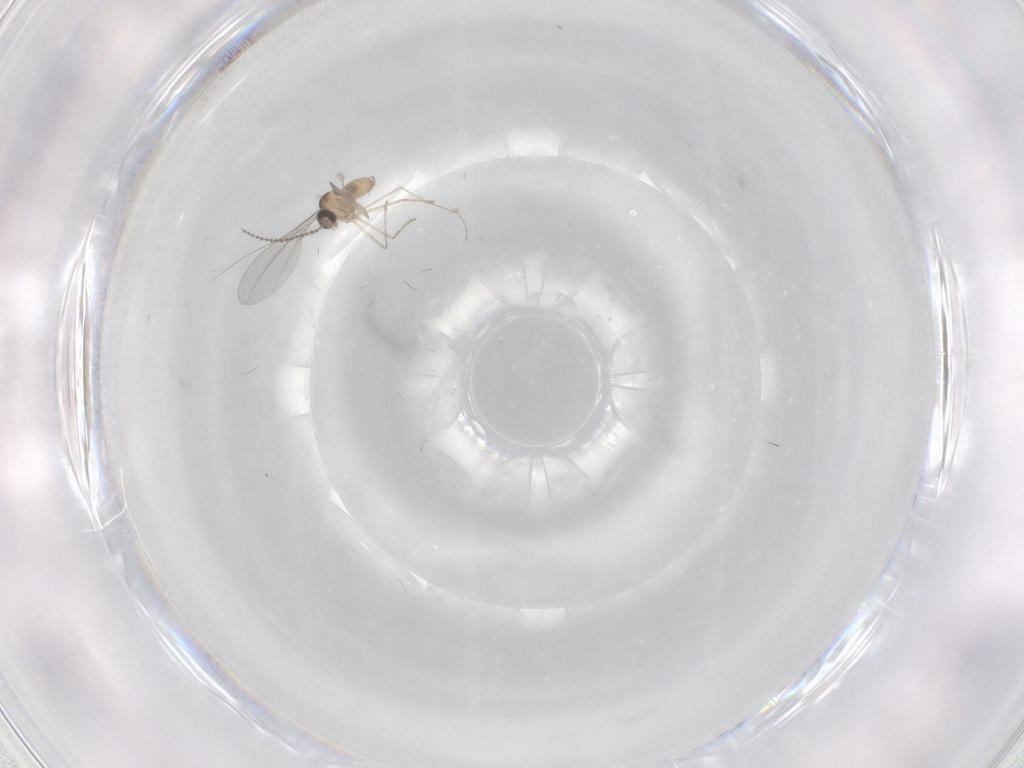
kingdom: Animalia
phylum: Arthropoda
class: Insecta
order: Diptera
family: Cecidomyiidae
